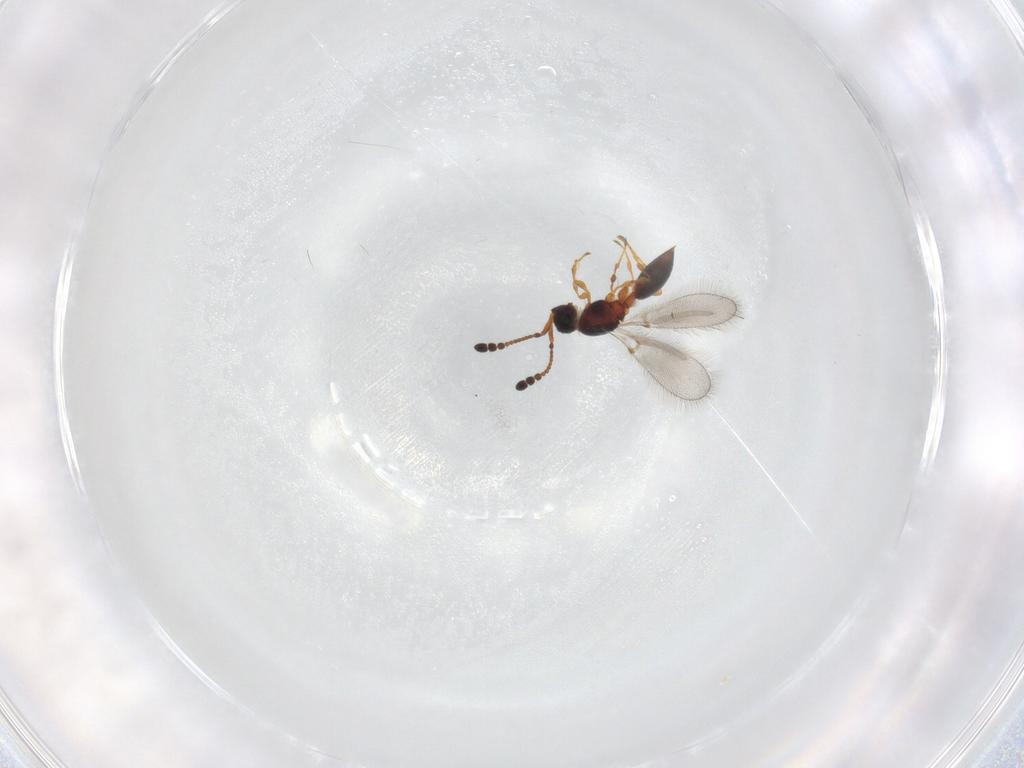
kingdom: Animalia
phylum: Arthropoda
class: Insecta
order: Hymenoptera
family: Diapriidae
